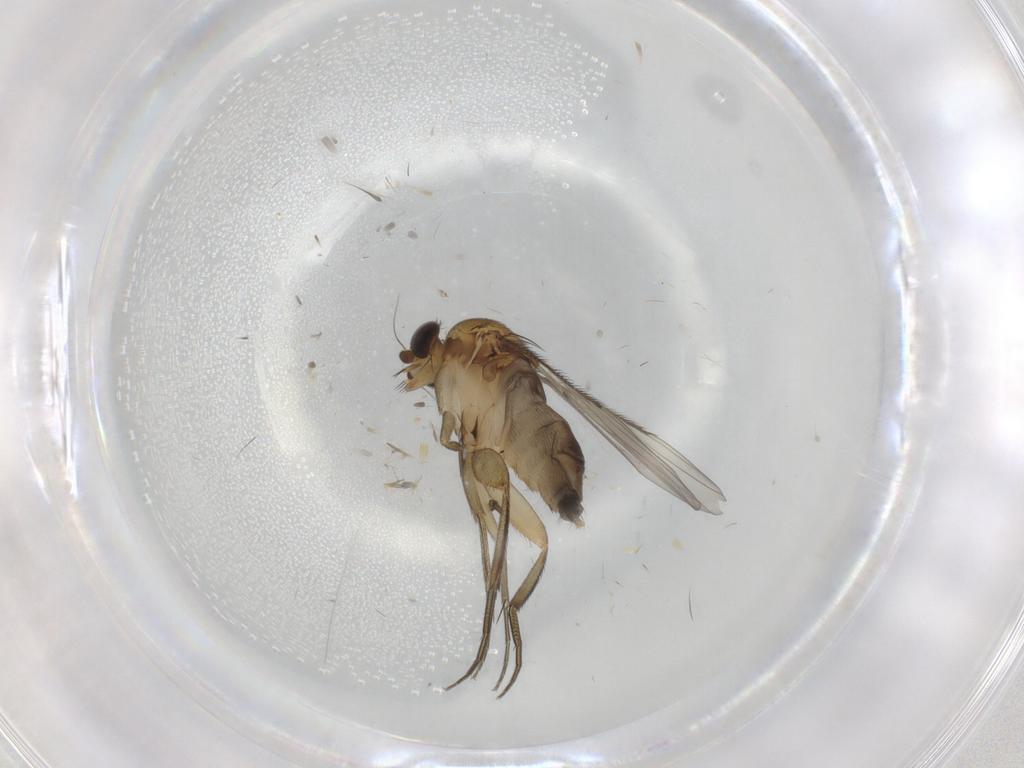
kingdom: Animalia
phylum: Arthropoda
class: Insecta
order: Diptera
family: Phoridae
